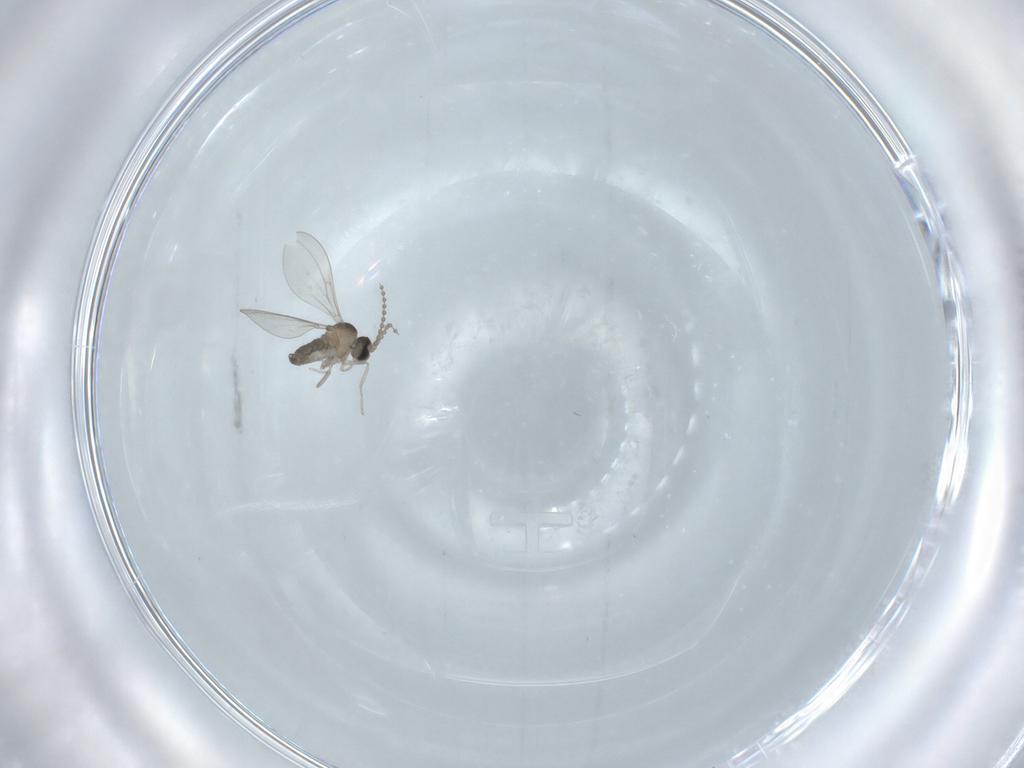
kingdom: Animalia
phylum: Arthropoda
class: Insecta
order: Diptera
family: Cecidomyiidae
